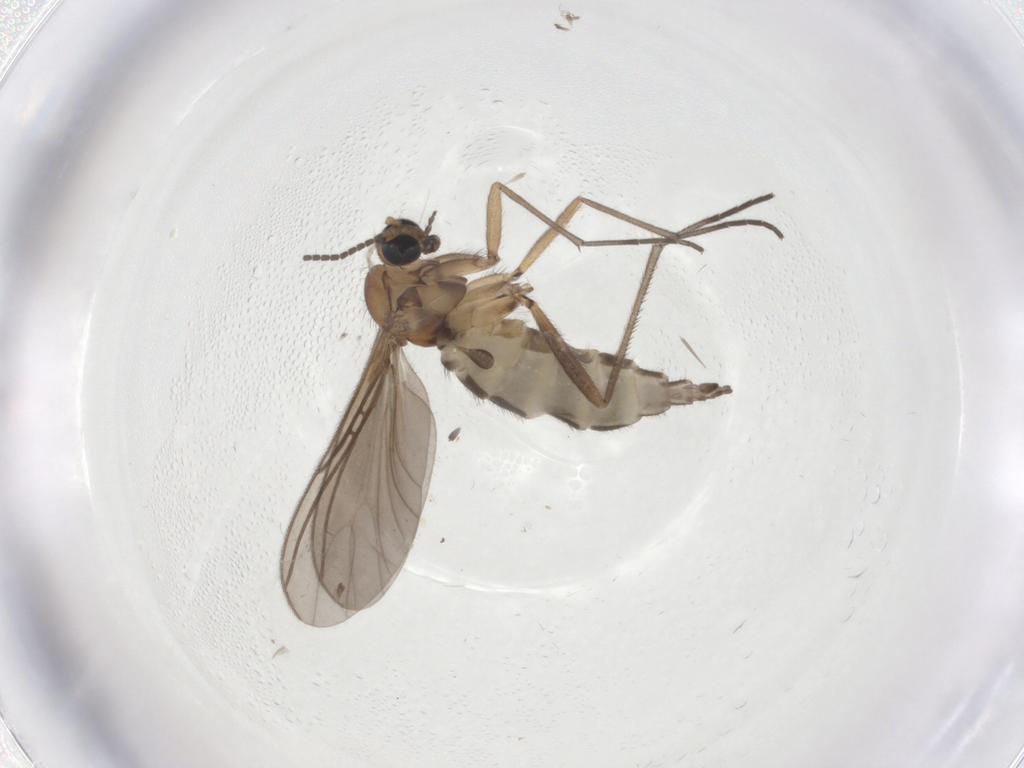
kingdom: Animalia
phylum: Arthropoda
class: Insecta
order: Diptera
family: Sciaridae
